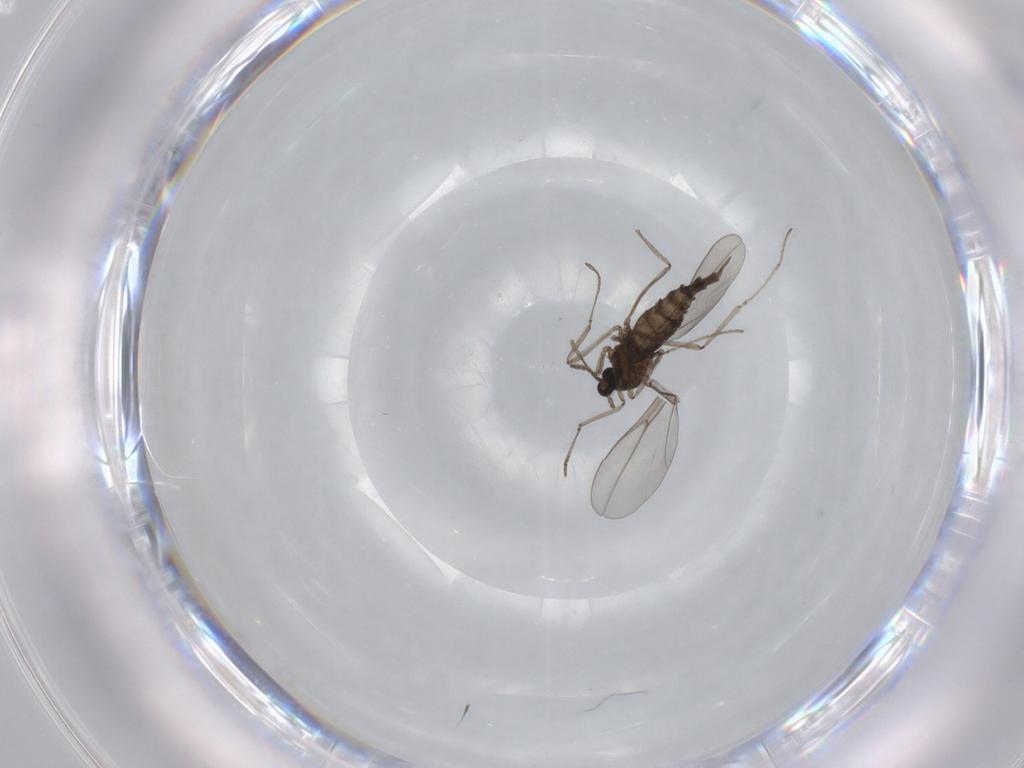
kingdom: Animalia
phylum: Arthropoda
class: Insecta
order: Diptera
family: Cecidomyiidae
